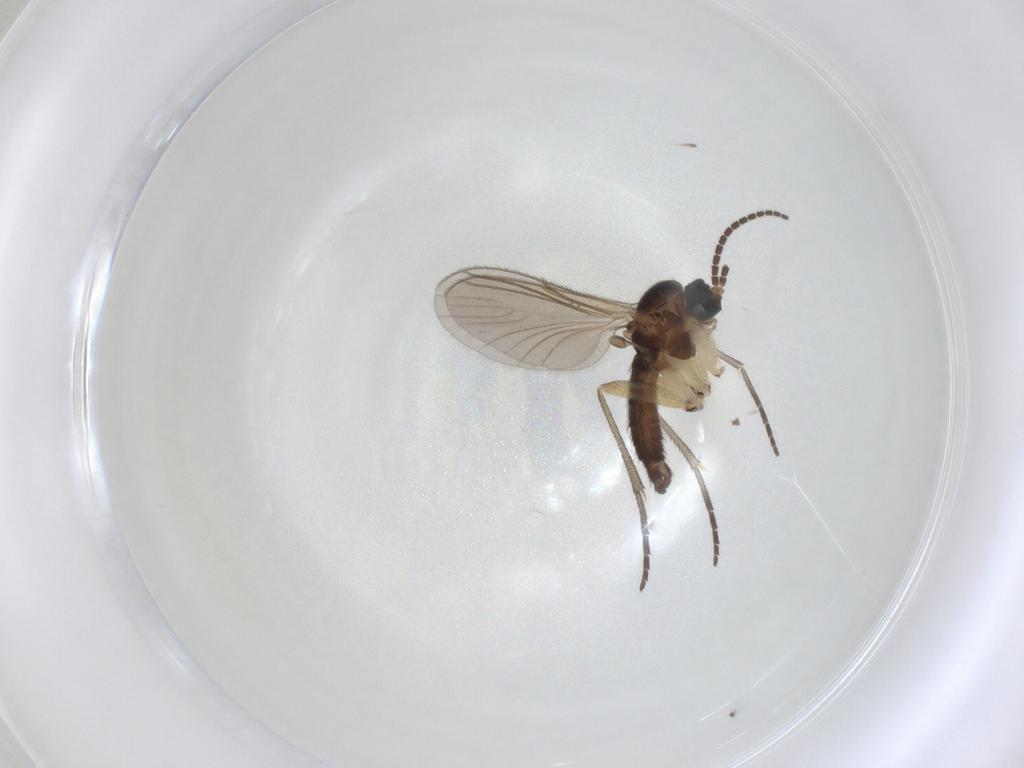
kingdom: Animalia
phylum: Arthropoda
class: Insecta
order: Diptera
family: Sciaridae
